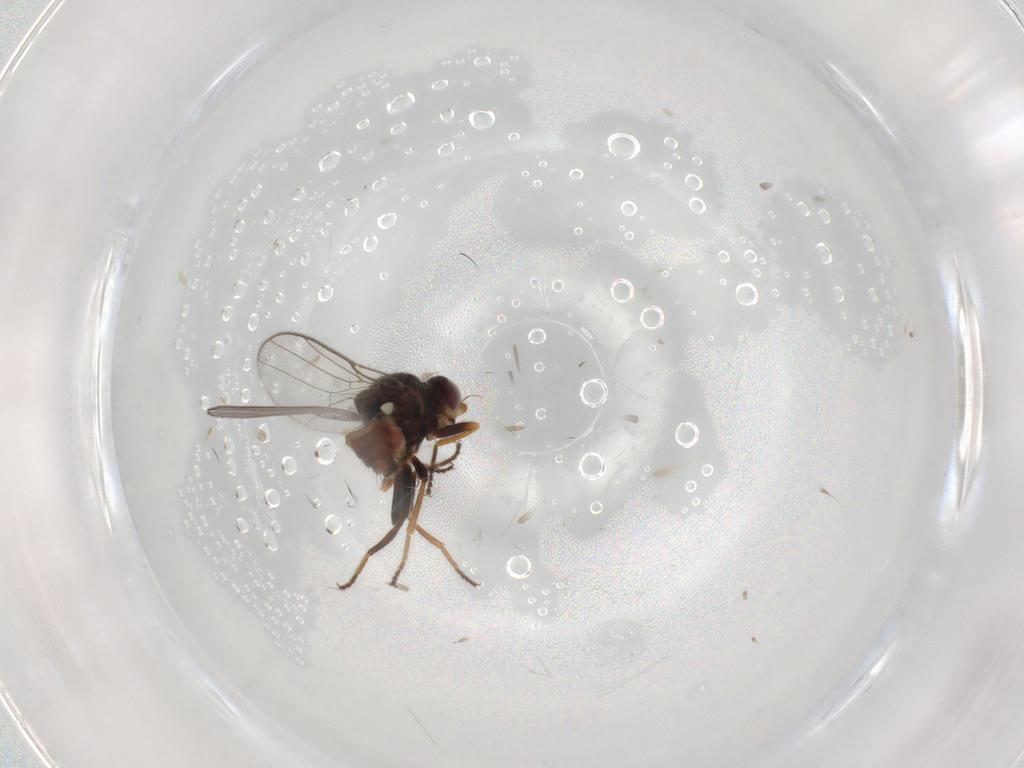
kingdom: Animalia
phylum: Arthropoda
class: Insecta
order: Diptera
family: Chloropidae
